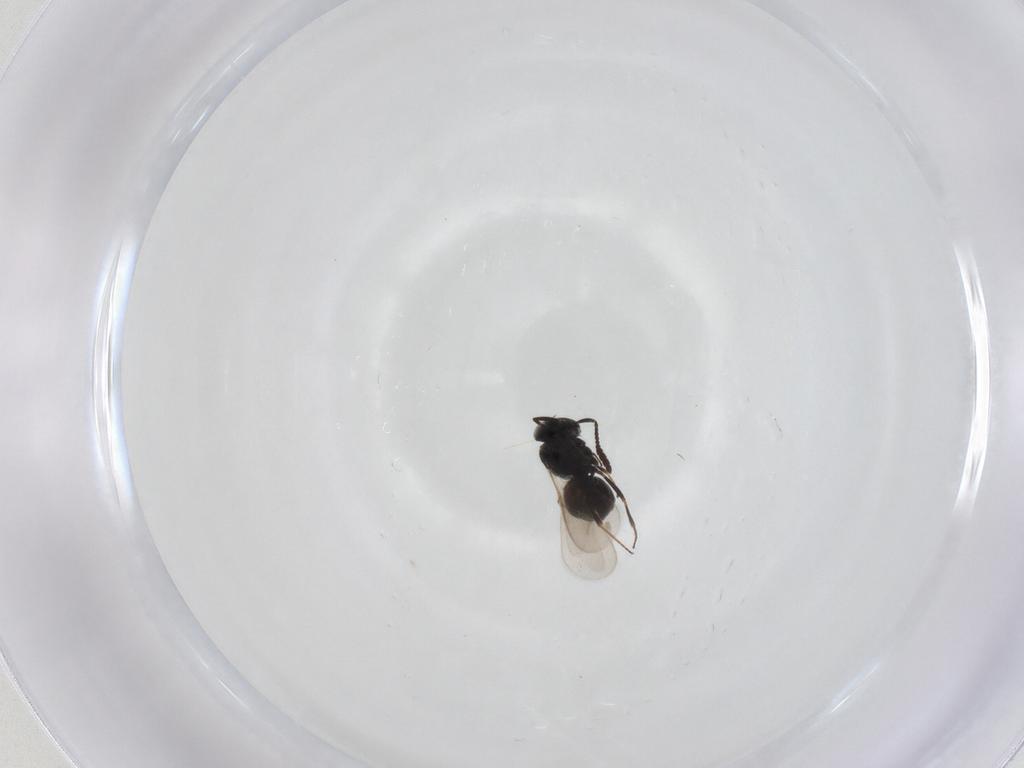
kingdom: Animalia
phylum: Arthropoda
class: Insecta
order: Hymenoptera
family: Scelionidae
